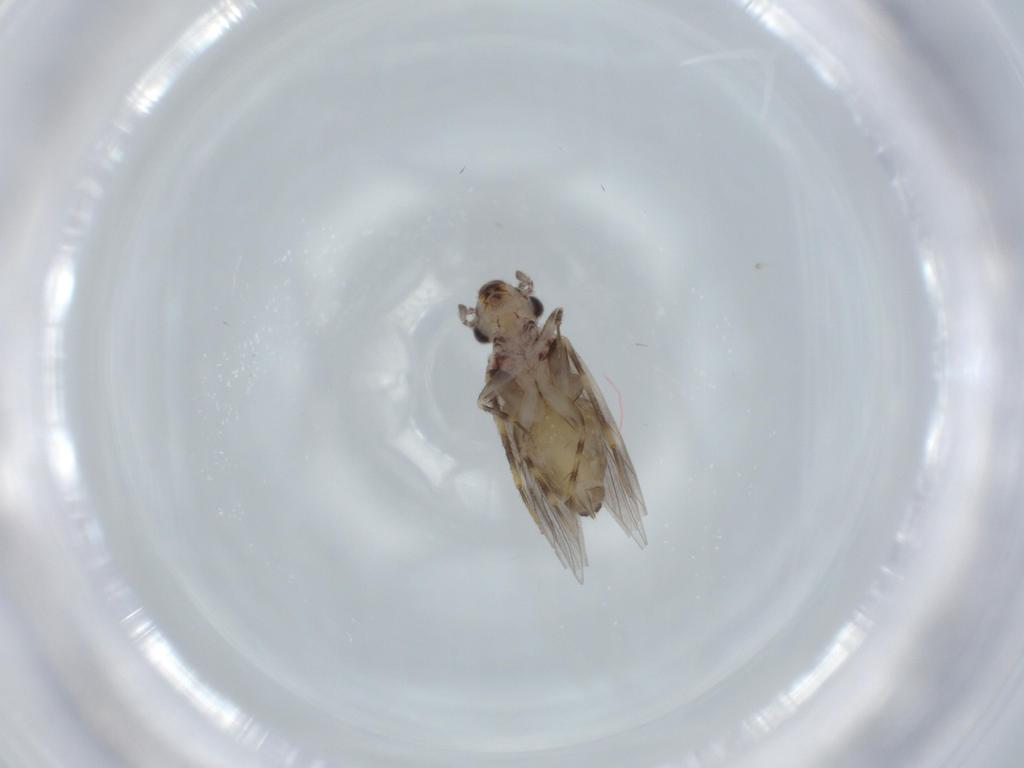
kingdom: Animalia
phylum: Arthropoda
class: Insecta
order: Psocodea
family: Lepidopsocidae
